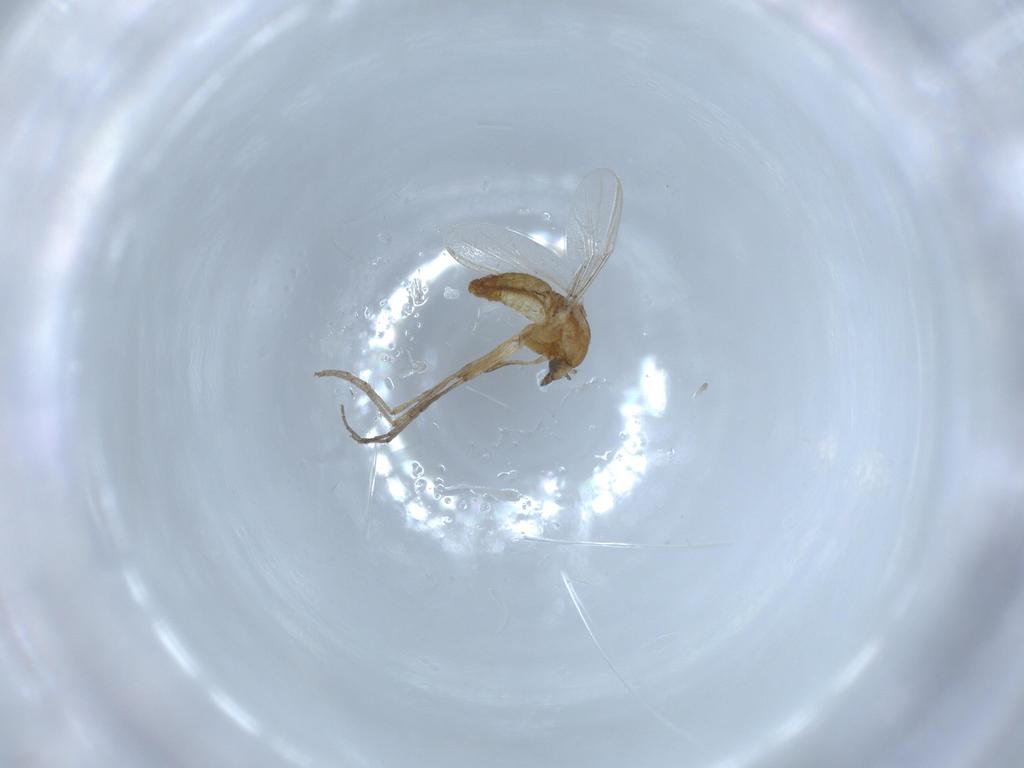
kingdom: Animalia
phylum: Arthropoda
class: Insecta
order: Diptera
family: Chironomidae
